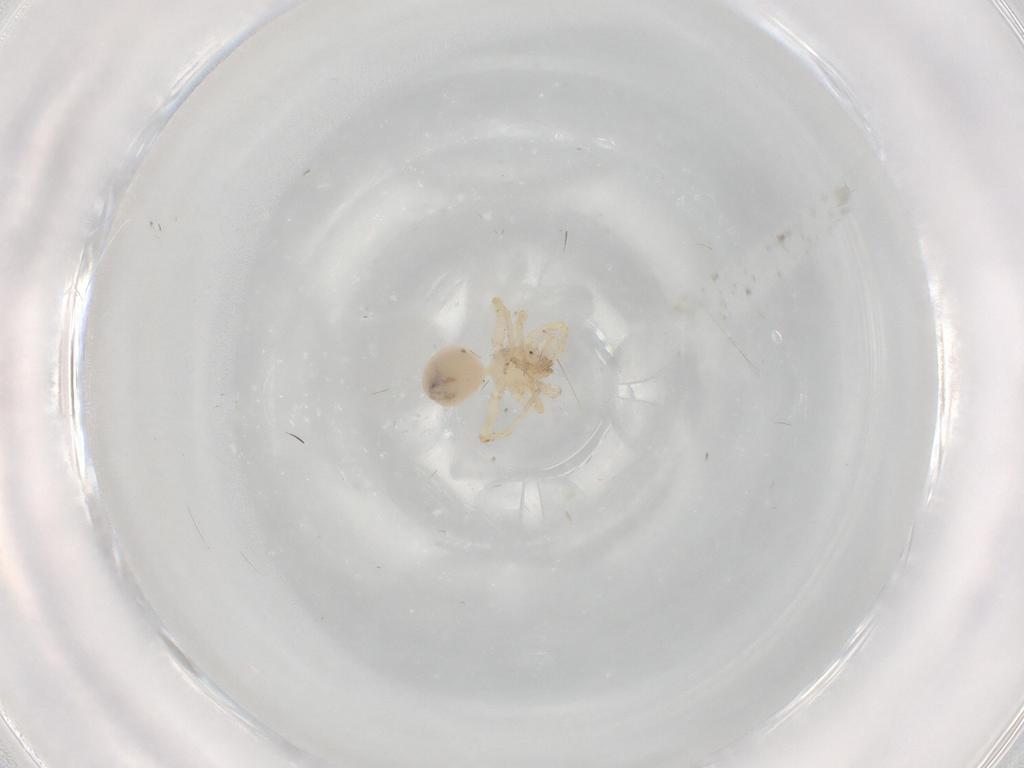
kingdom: Animalia
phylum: Arthropoda
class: Arachnida
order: Araneae
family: Oonopidae
